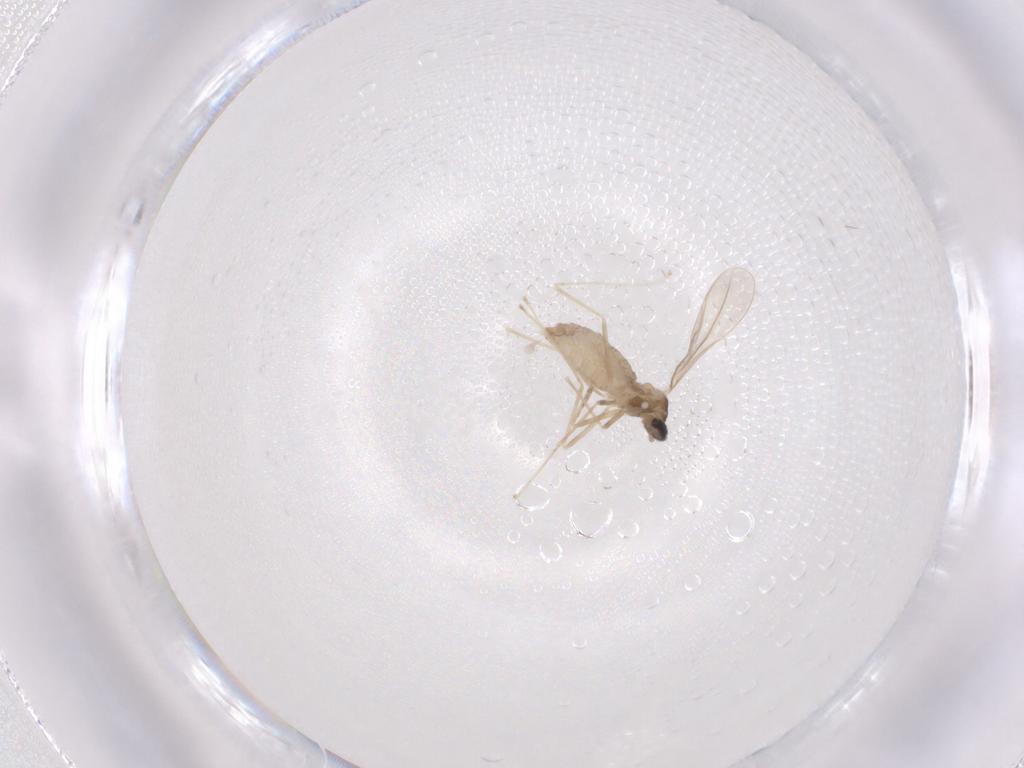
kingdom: Animalia
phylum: Arthropoda
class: Insecta
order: Diptera
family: Cecidomyiidae
